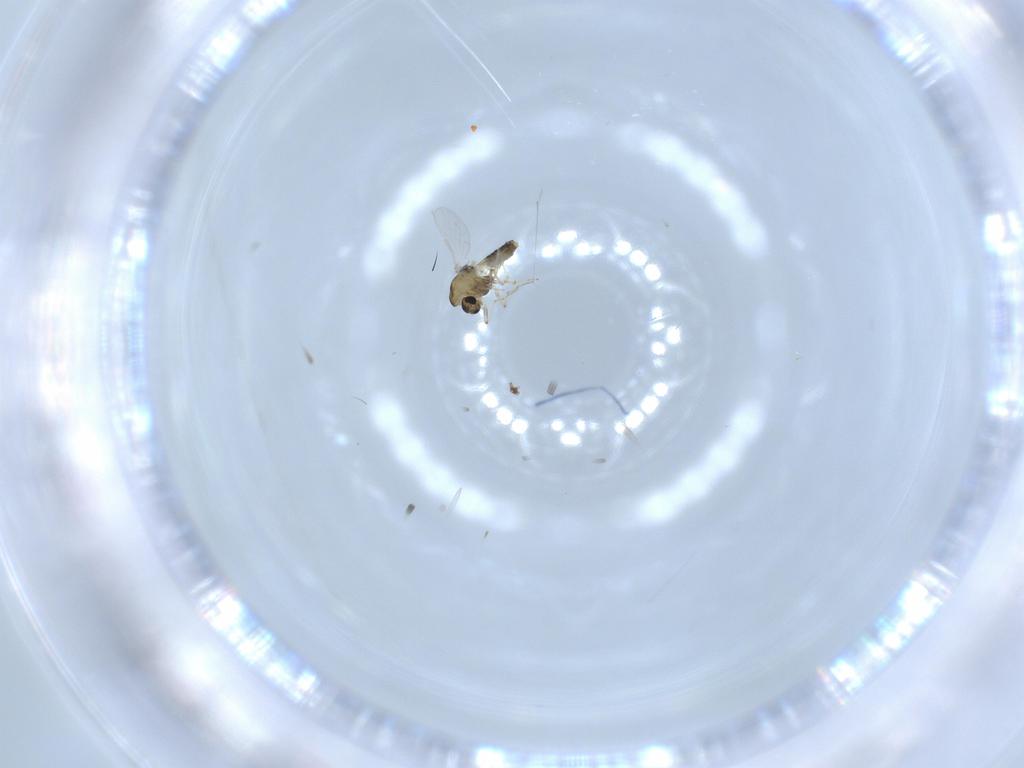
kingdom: Animalia
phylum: Arthropoda
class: Insecta
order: Diptera
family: Chironomidae
